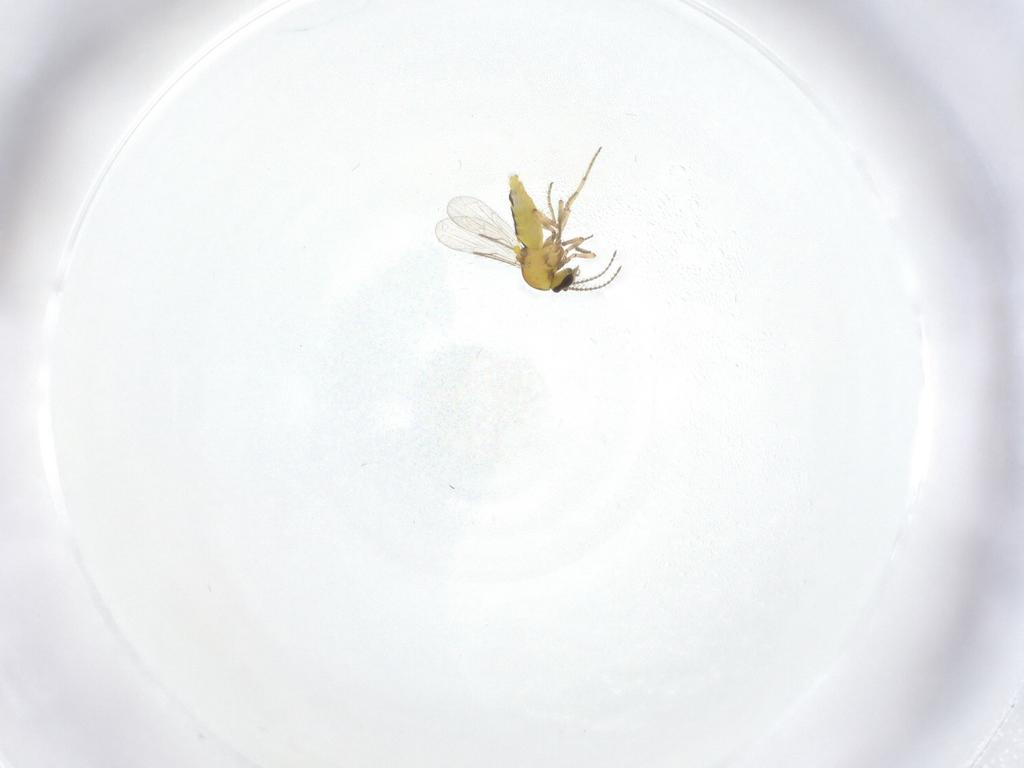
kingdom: Animalia
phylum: Arthropoda
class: Insecta
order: Diptera
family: Ceratopogonidae
